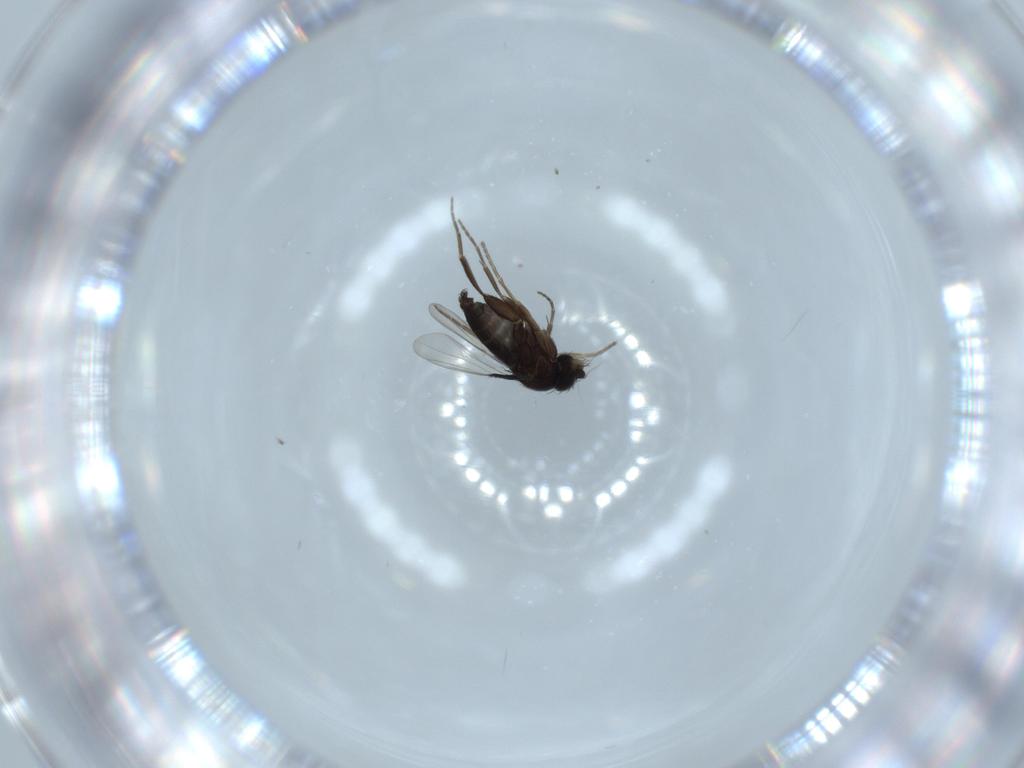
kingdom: Animalia
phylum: Arthropoda
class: Insecta
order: Diptera
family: Phoridae
